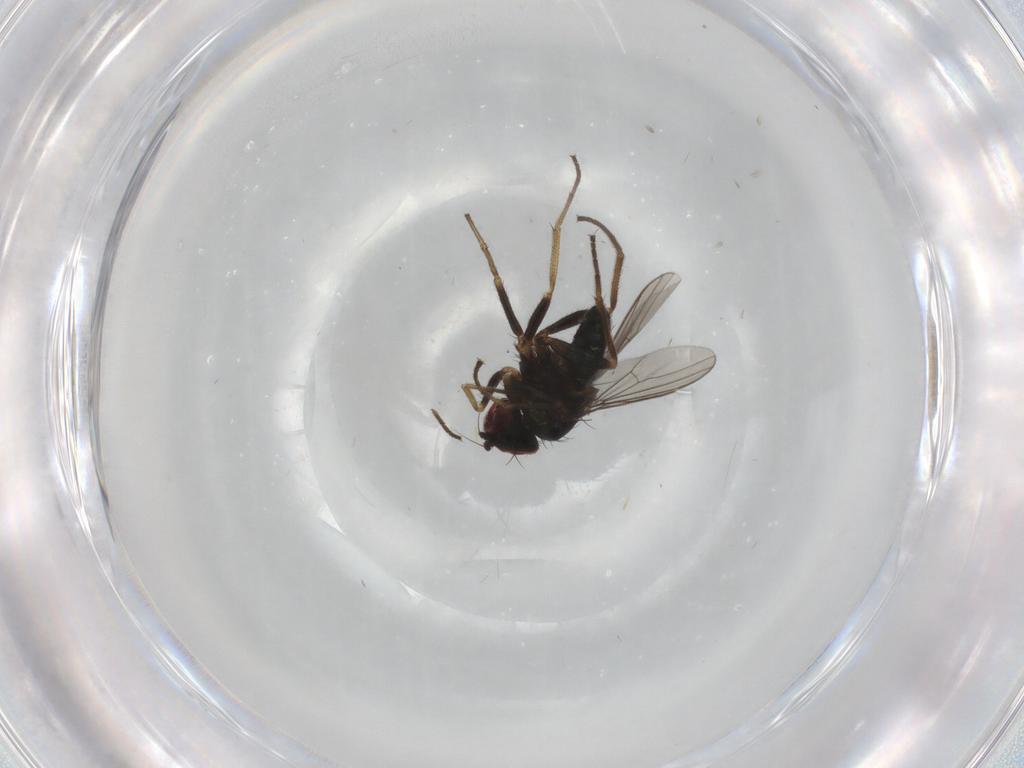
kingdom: Animalia
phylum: Arthropoda
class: Insecta
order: Diptera
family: Dolichopodidae
